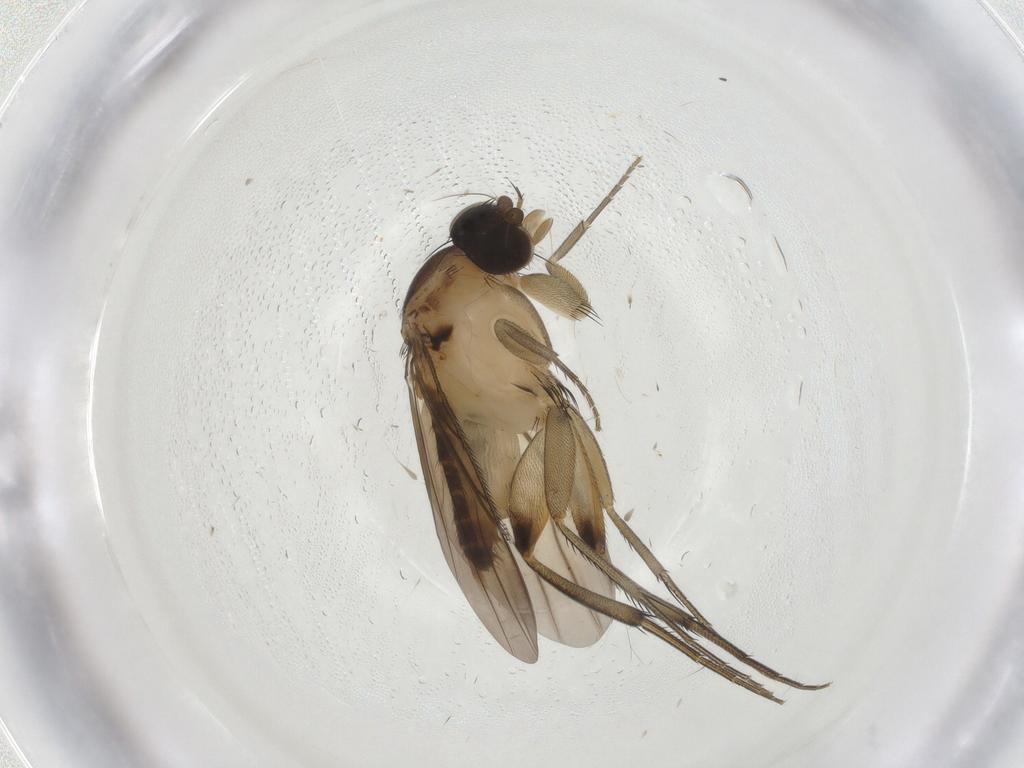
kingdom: Animalia
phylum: Arthropoda
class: Insecta
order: Diptera
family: Phoridae
